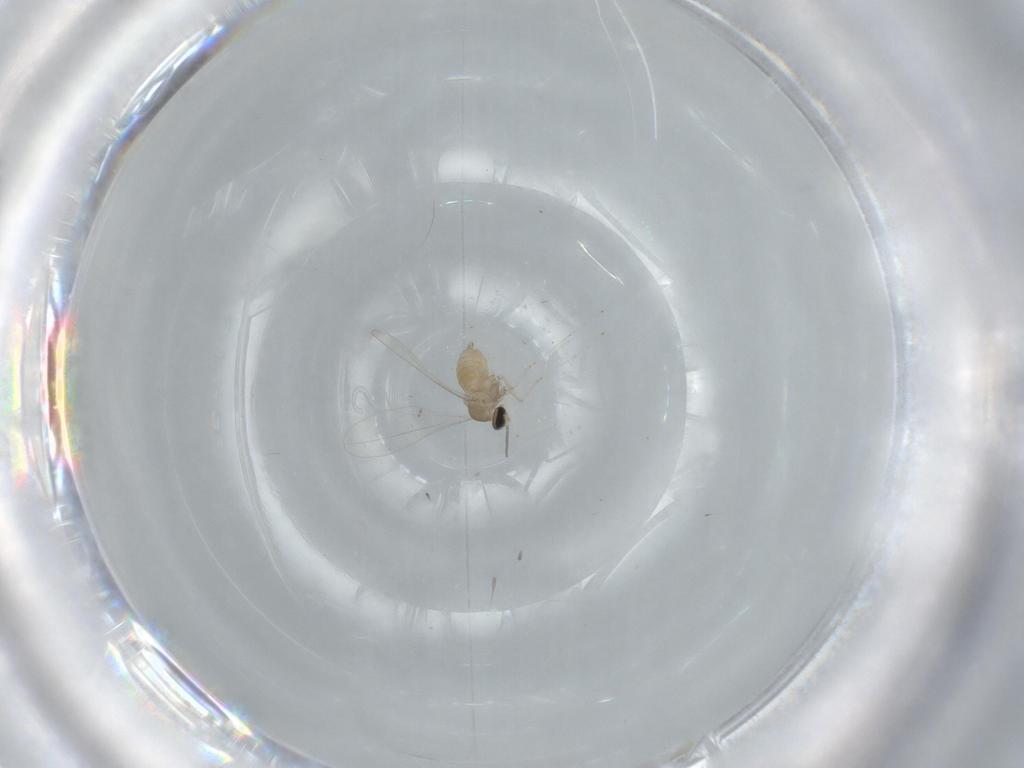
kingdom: Animalia
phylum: Arthropoda
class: Insecta
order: Diptera
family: Cecidomyiidae
